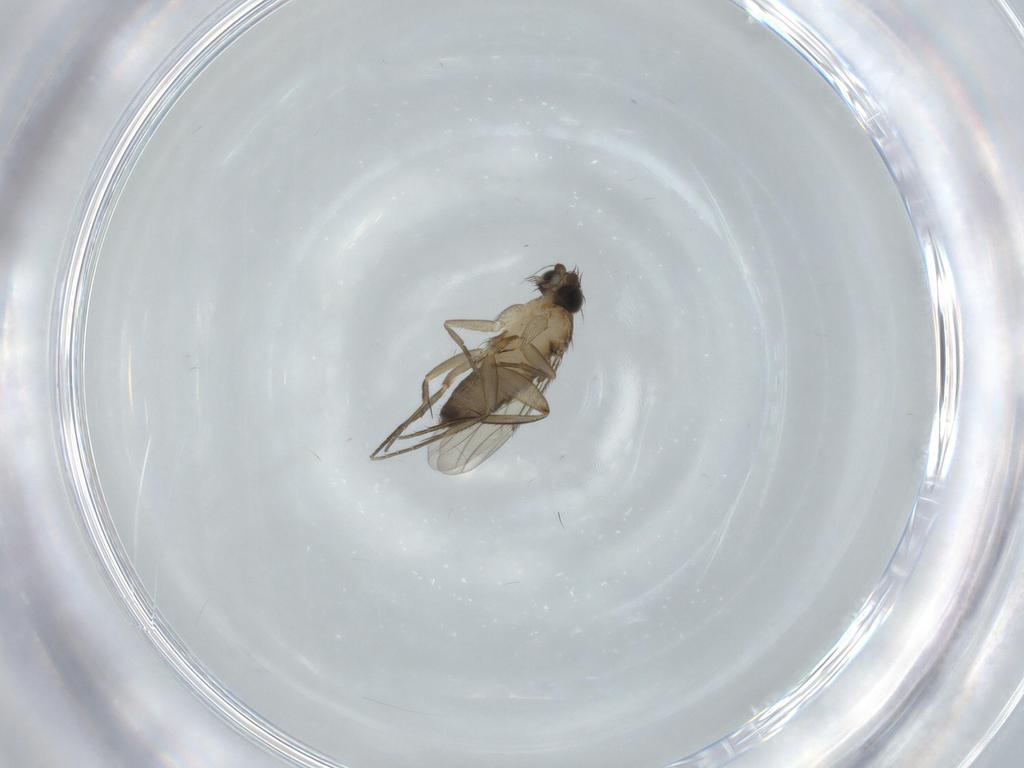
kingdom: Animalia
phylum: Arthropoda
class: Insecta
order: Diptera
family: Phoridae
